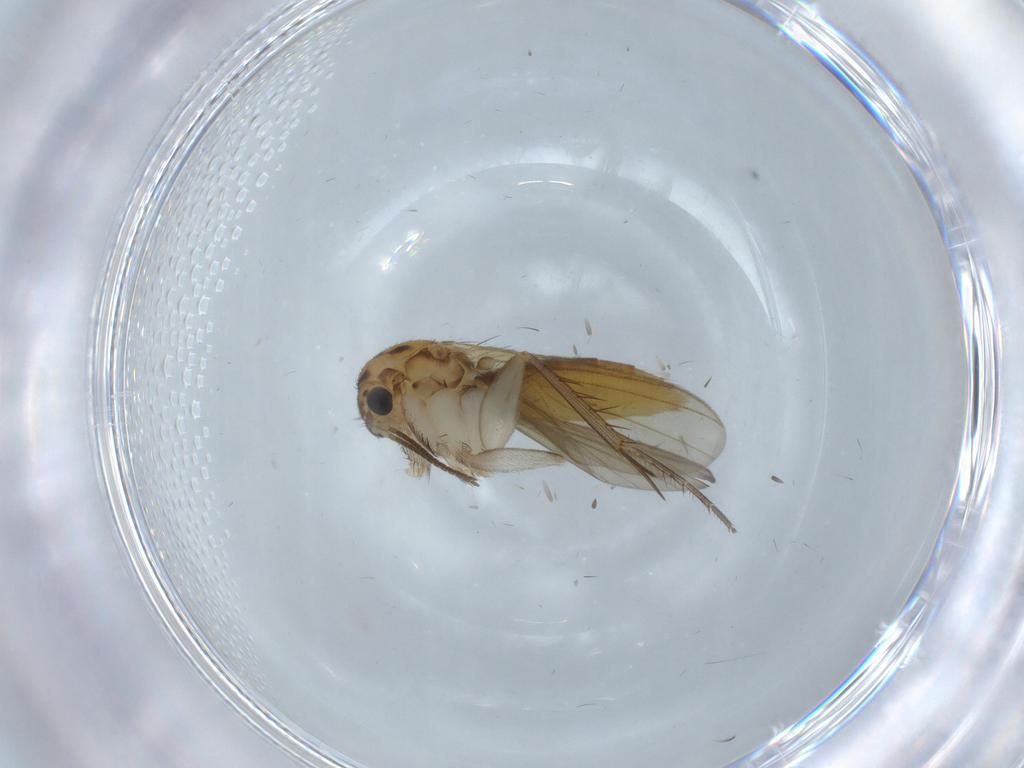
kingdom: Animalia
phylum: Arthropoda
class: Insecta
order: Diptera
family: Mycetophilidae
